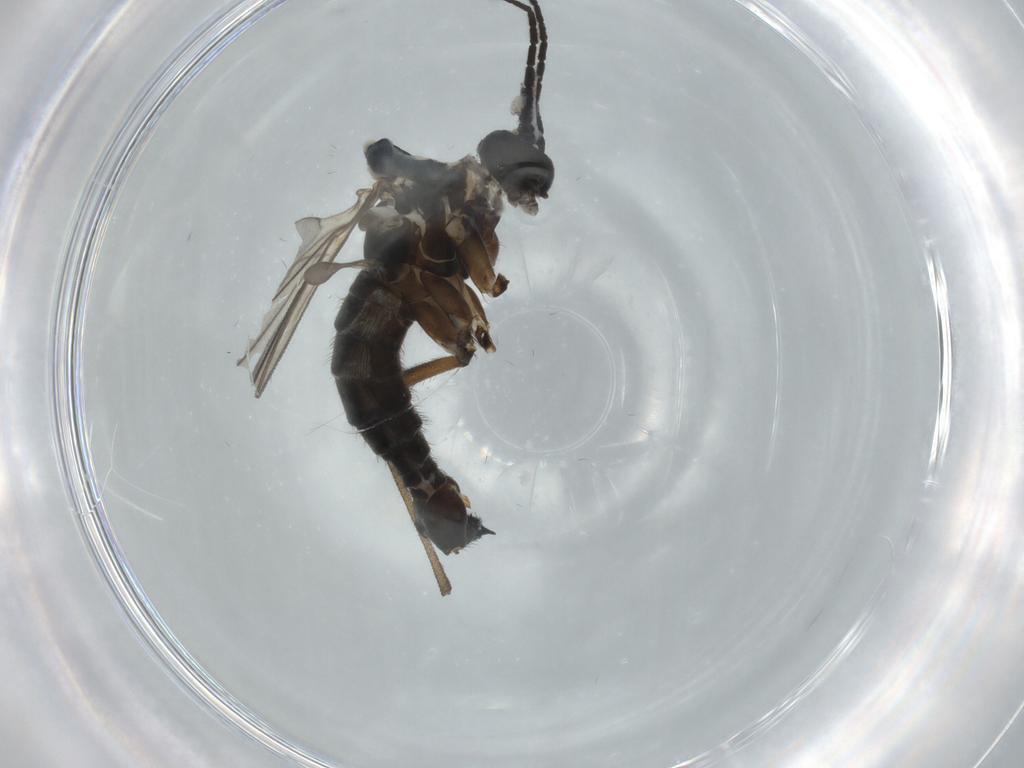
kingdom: Animalia
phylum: Arthropoda
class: Insecta
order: Diptera
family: Sciaridae
